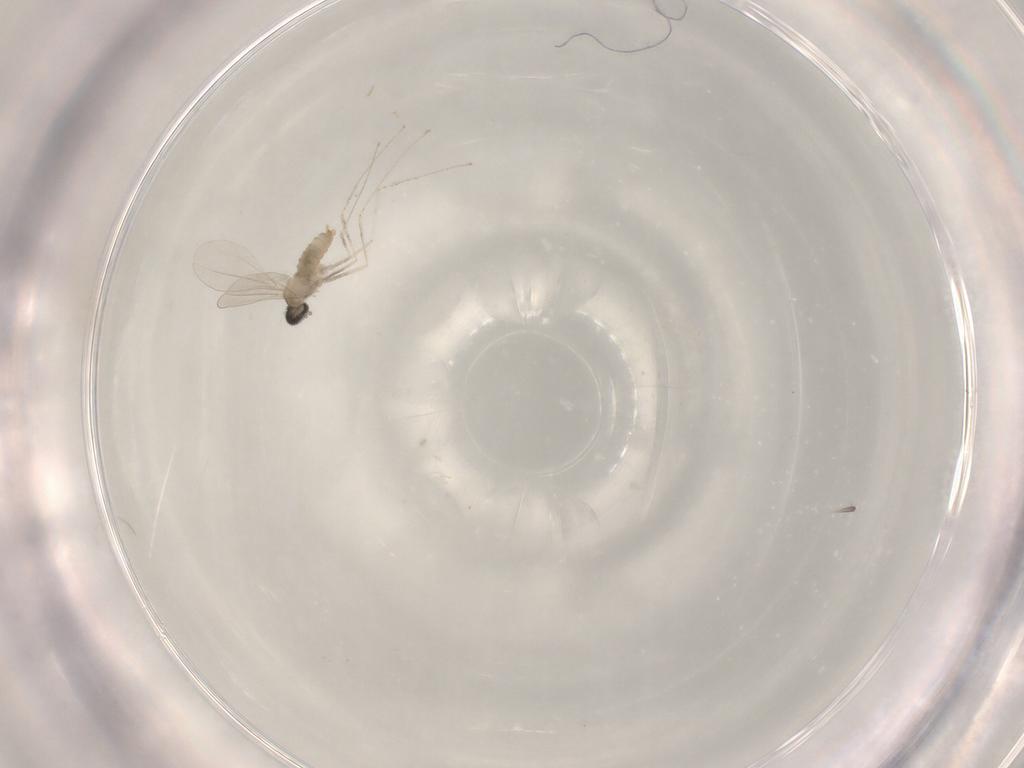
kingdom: Animalia
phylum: Arthropoda
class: Insecta
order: Diptera
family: Cecidomyiidae
